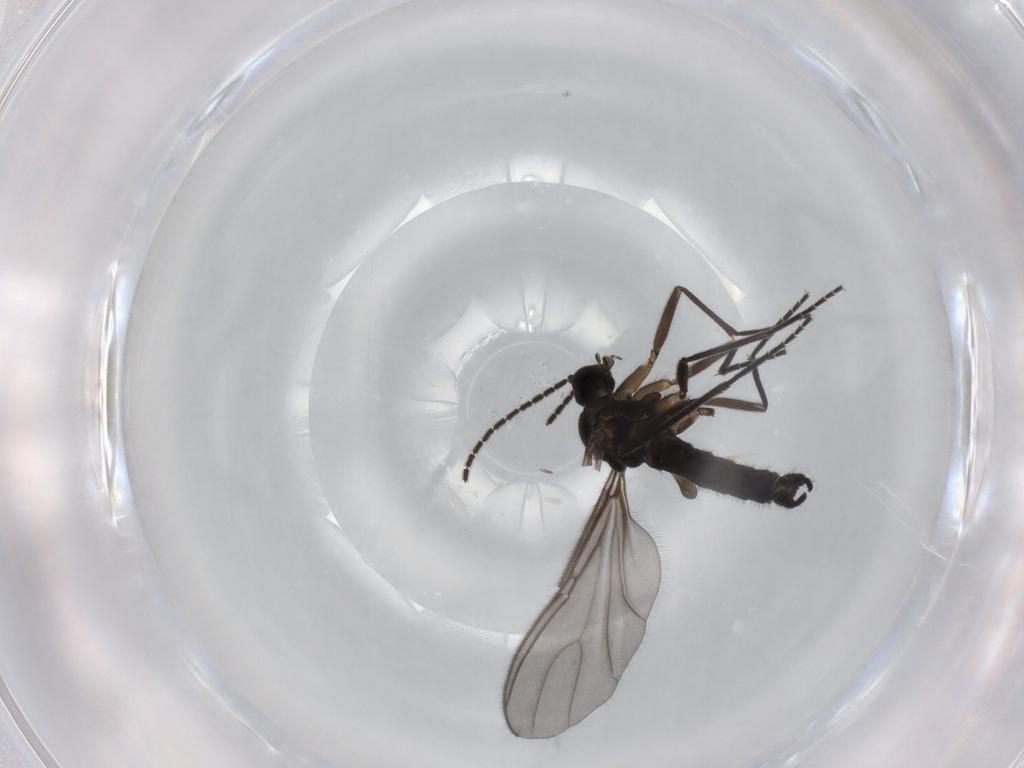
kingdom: Animalia
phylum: Arthropoda
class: Insecta
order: Diptera
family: Sciaridae
